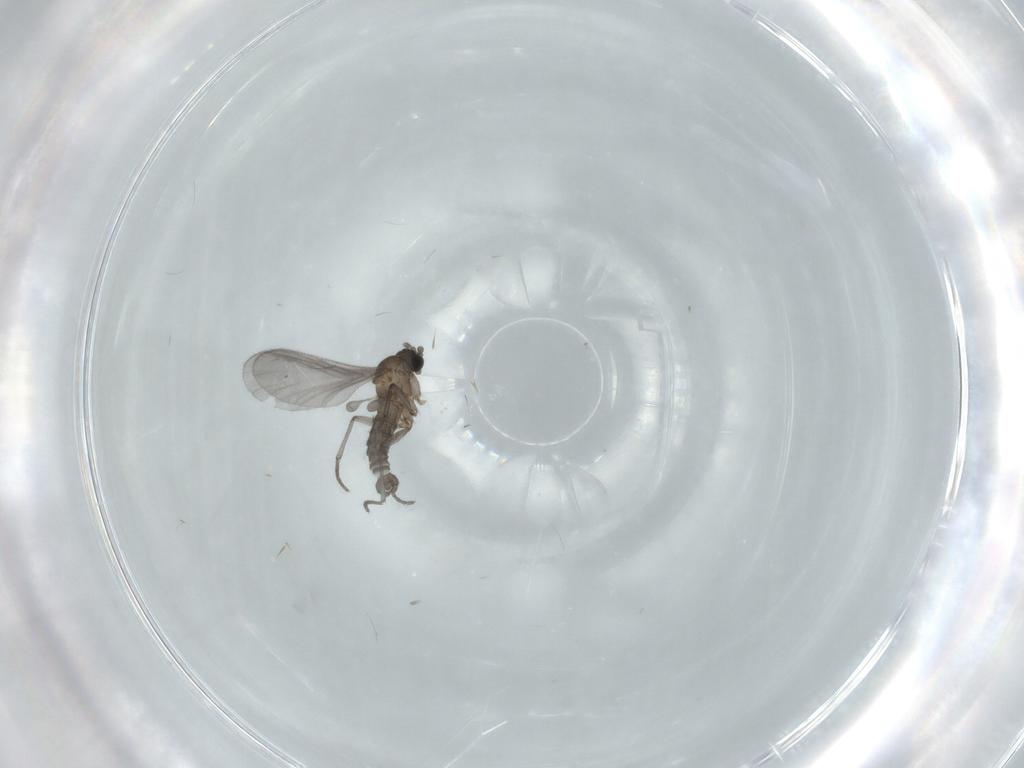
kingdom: Animalia
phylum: Arthropoda
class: Insecta
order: Diptera
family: Sciaridae
